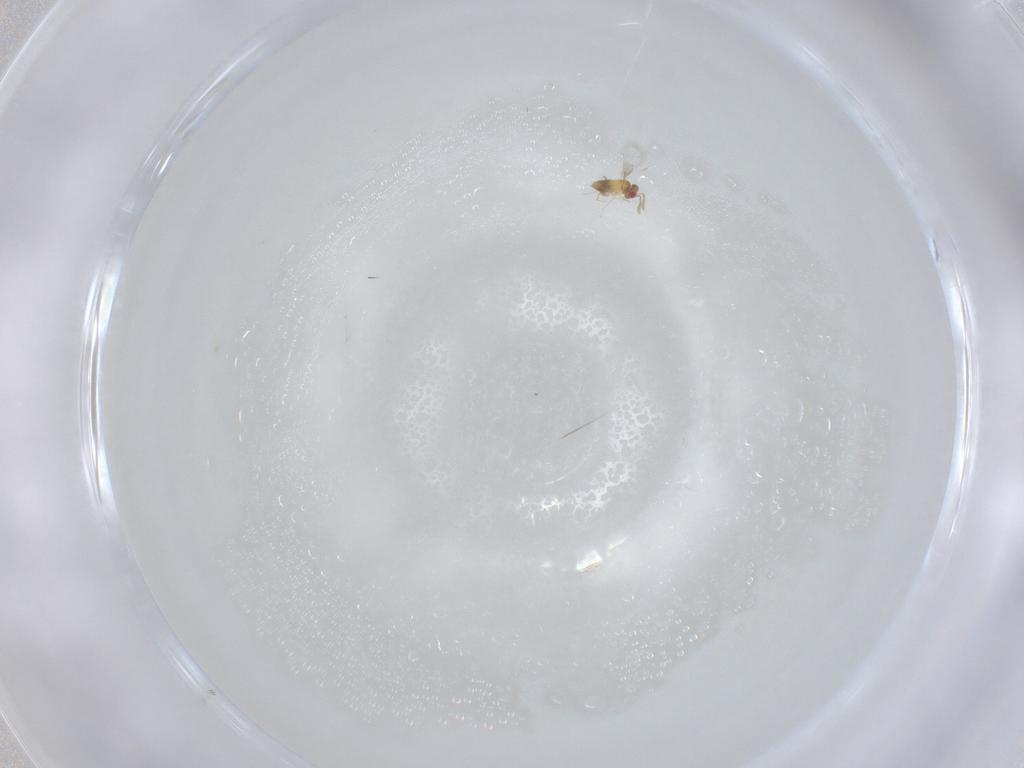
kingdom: Animalia
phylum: Arthropoda
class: Insecta
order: Hymenoptera
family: Trichogrammatidae
